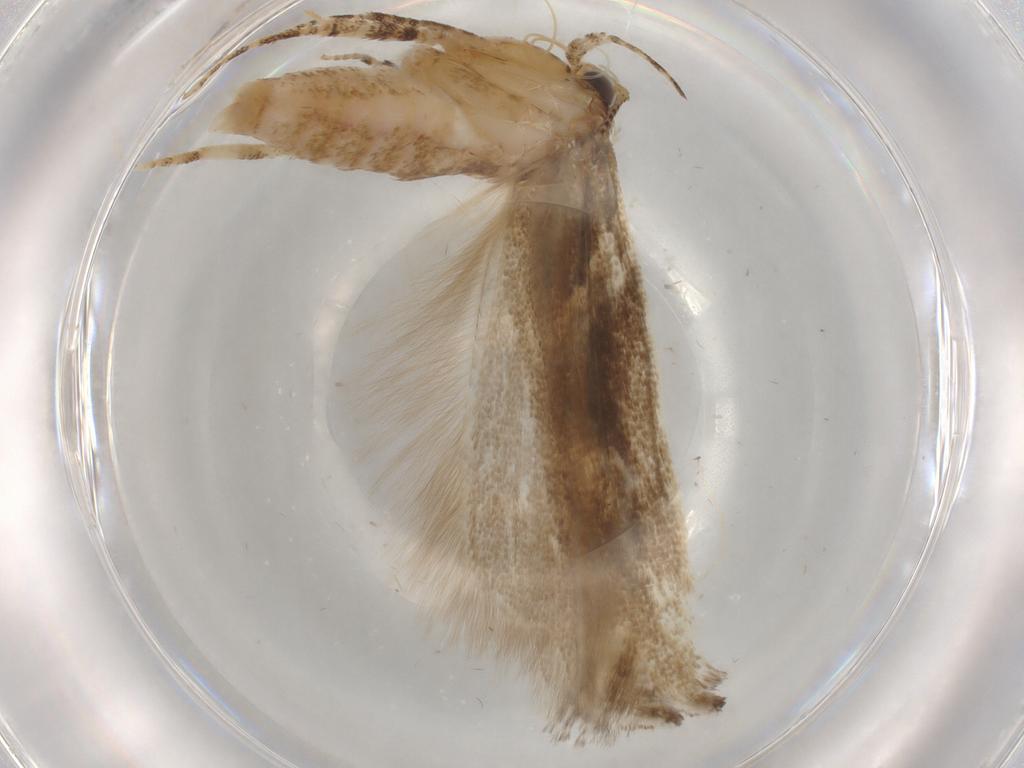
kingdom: Animalia
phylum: Arthropoda
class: Insecta
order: Lepidoptera
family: Gelechiidae
